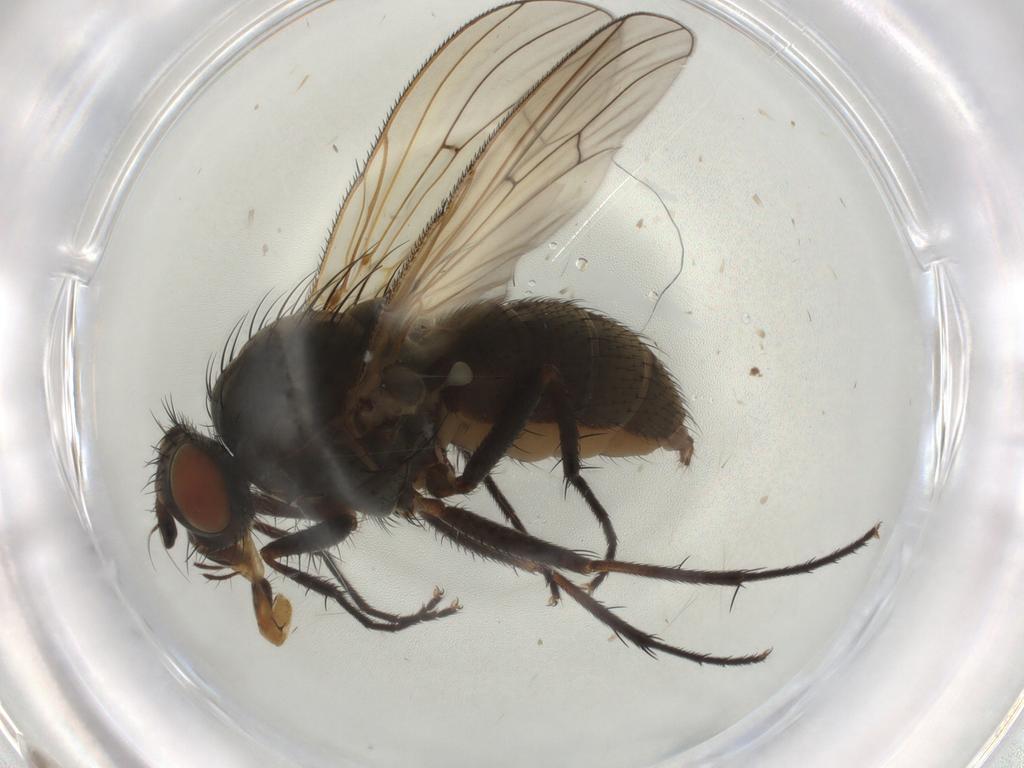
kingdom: Animalia
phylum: Arthropoda
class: Insecta
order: Diptera
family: Anthomyiidae
